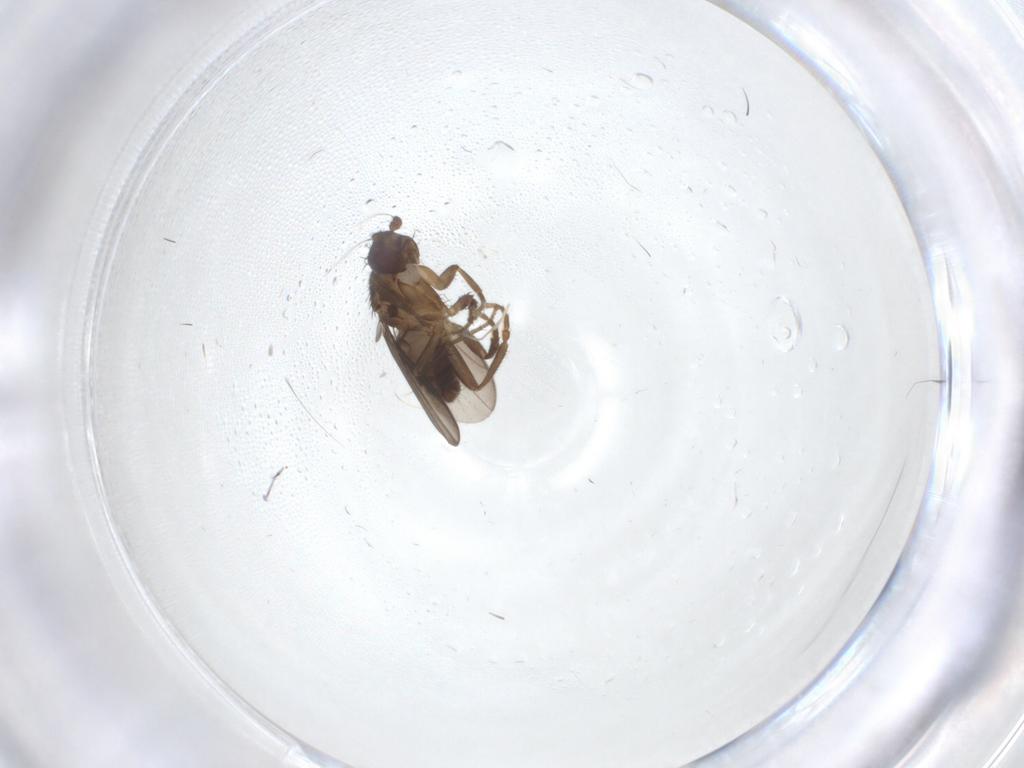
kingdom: Animalia
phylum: Arthropoda
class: Insecta
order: Diptera
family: Sphaeroceridae
